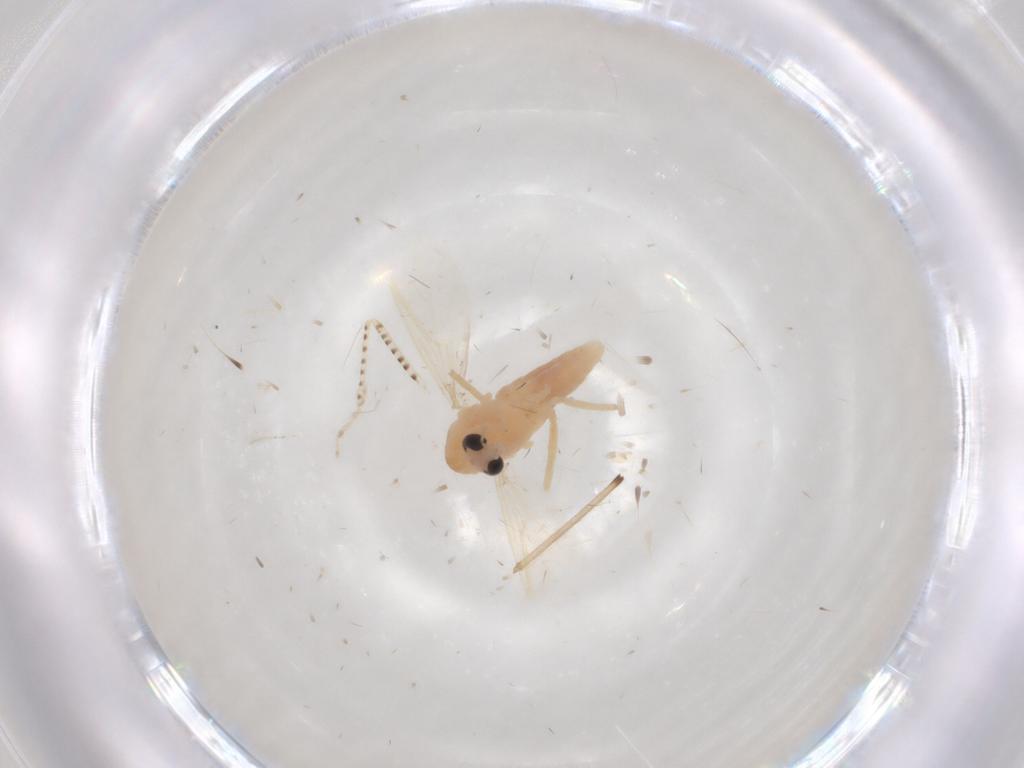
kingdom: Animalia
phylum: Arthropoda
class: Insecta
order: Diptera
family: Chironomidae
